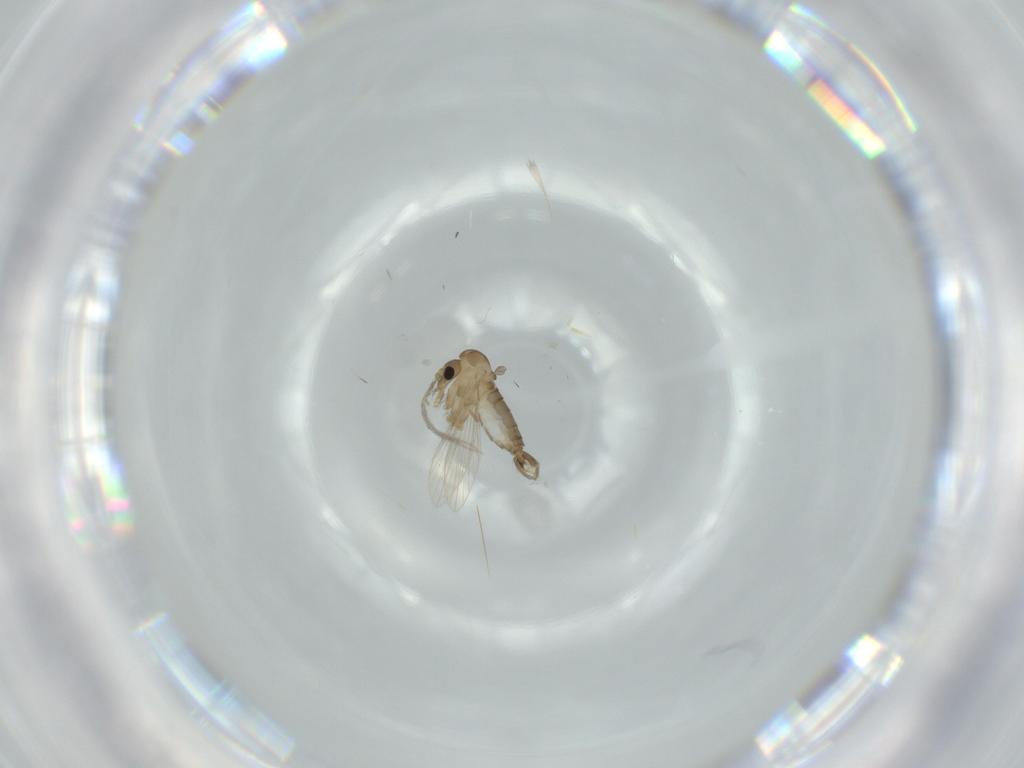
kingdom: Animalia
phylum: Arthropoda
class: Insecta
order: Diptera
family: Psychodidae
